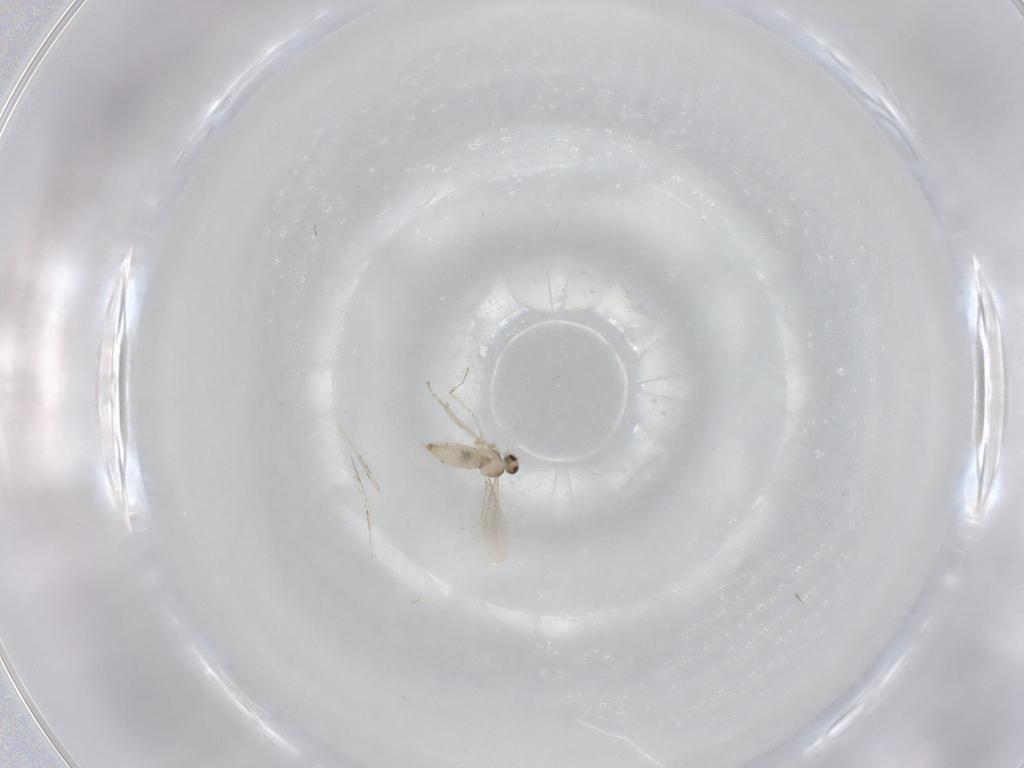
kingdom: Animalia
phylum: Arthropoda
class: Insecta
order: Diptera
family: Cecidomyiidae
